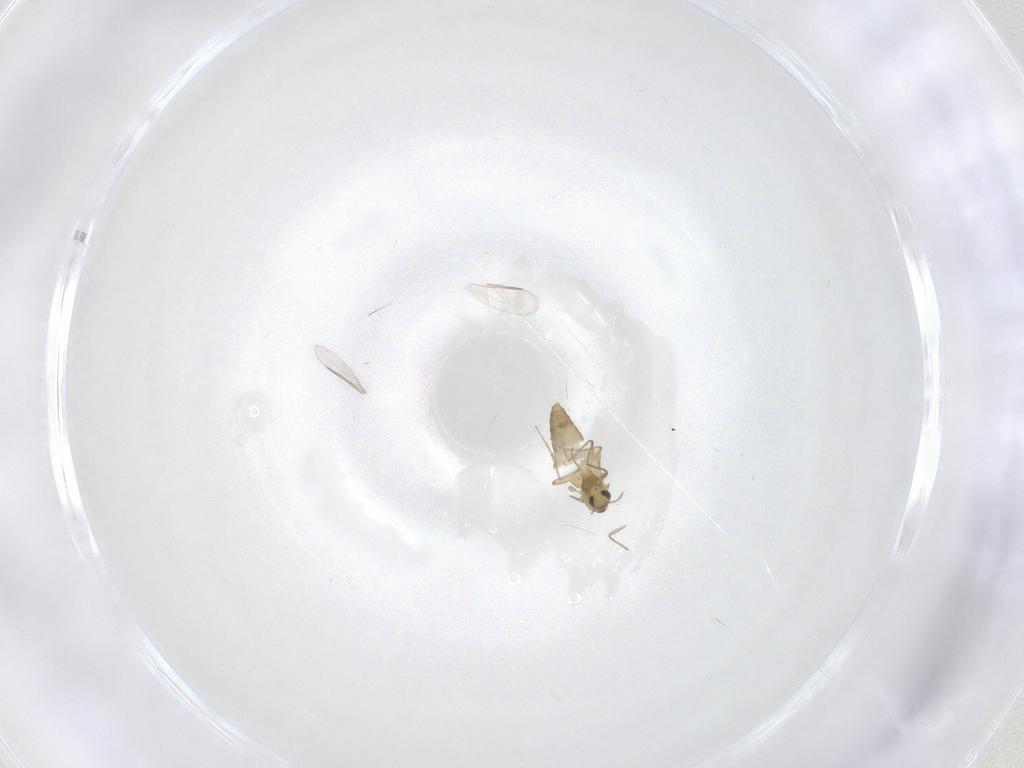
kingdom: Animalia
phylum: Arthropoda
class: Insecta
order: Diptera
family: Chironomidae
